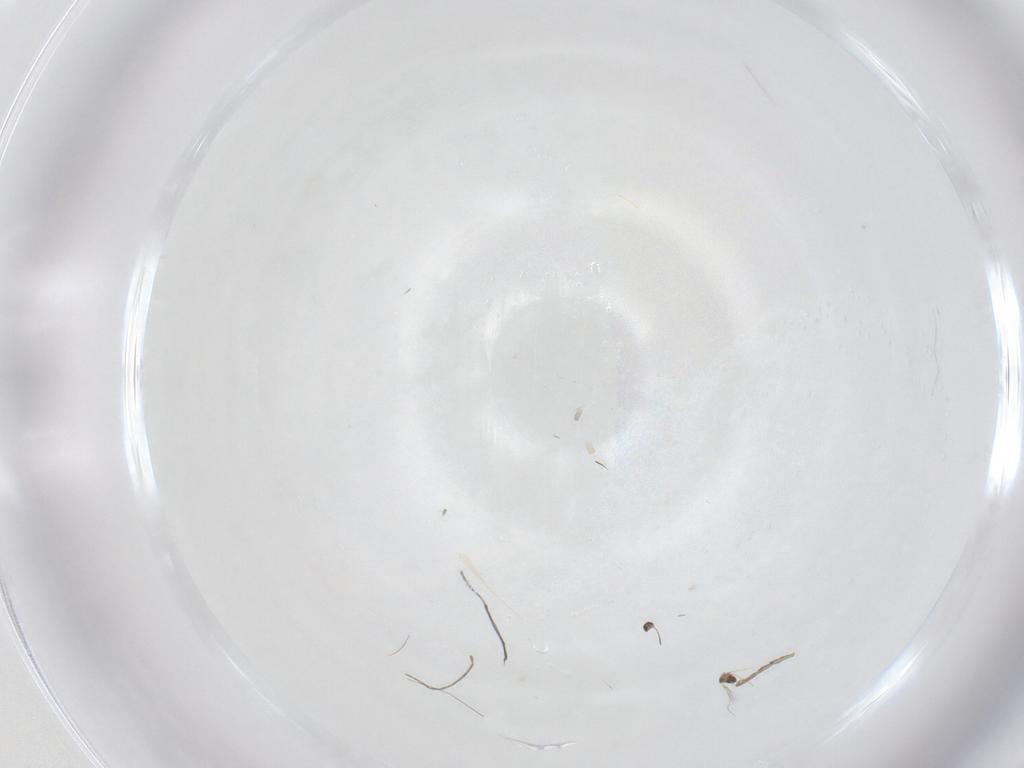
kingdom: Animalia
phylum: Arthropoda
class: Insecta
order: Diptera
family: Psychodidae
